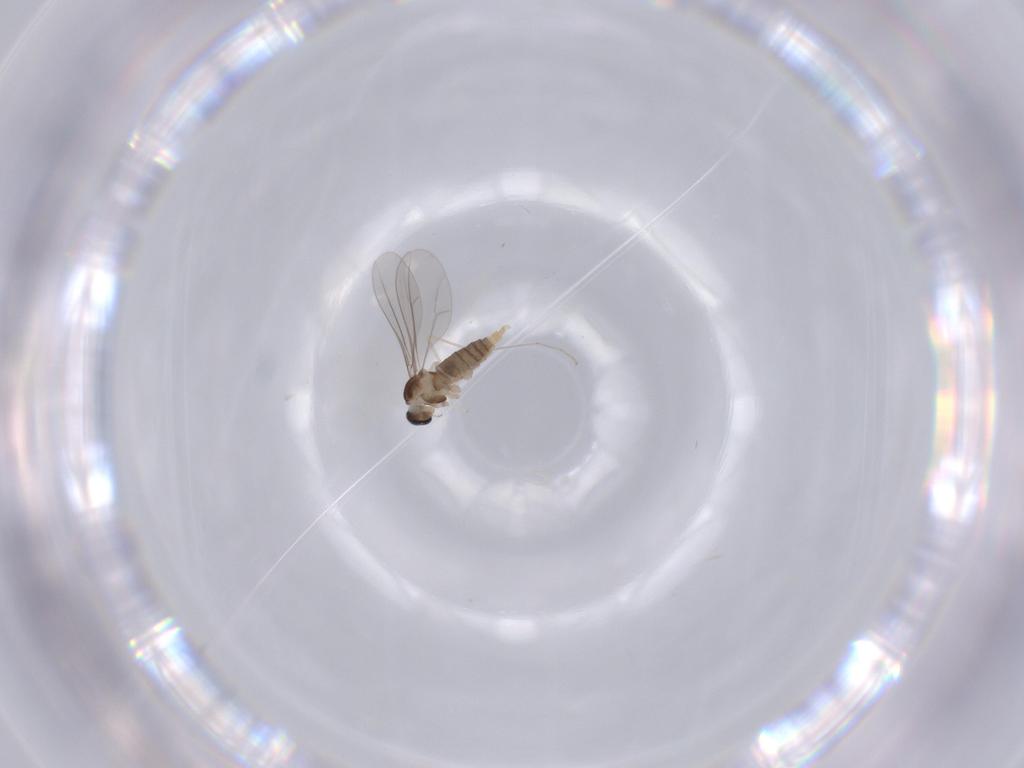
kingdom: Animalia
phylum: Arthropoda
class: Insecta
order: Diptera
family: Cecidomyiidae
